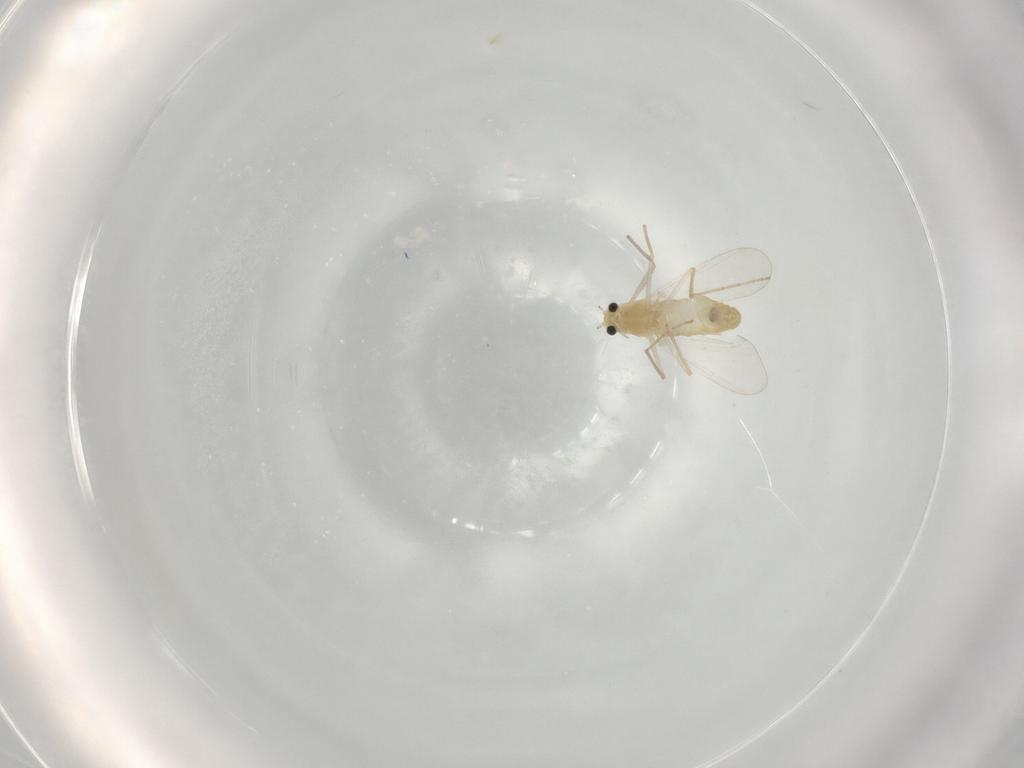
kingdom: Animalia
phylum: Arthropoda
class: Insecta
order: Diptera
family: Chironomidae
